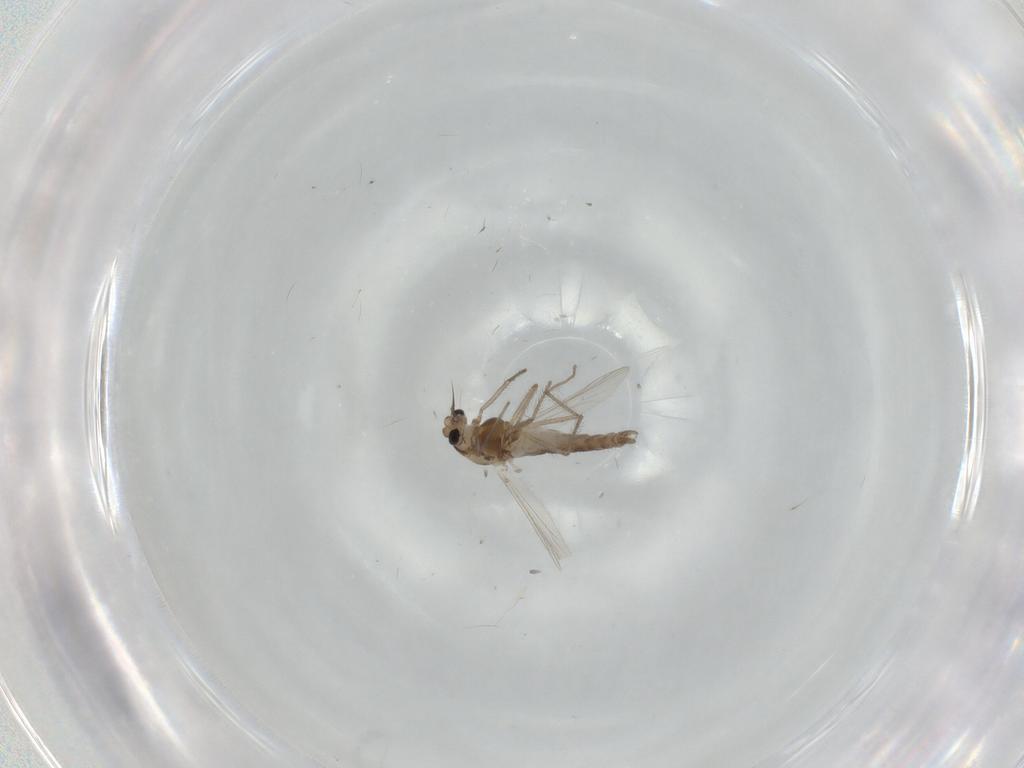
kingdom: Animalia
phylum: Arthropoda
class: Insecta
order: Diptera
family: Chironomidae
